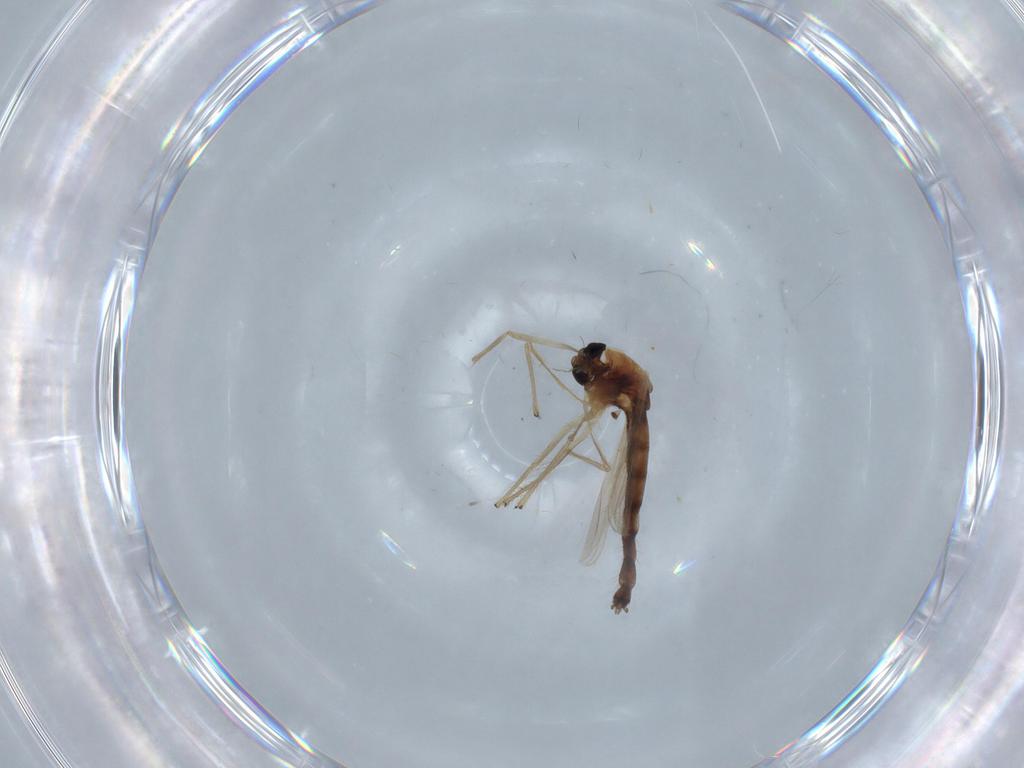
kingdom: Animalia
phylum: Arthropoda
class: Insecta
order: Diptera
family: Chironomidae
